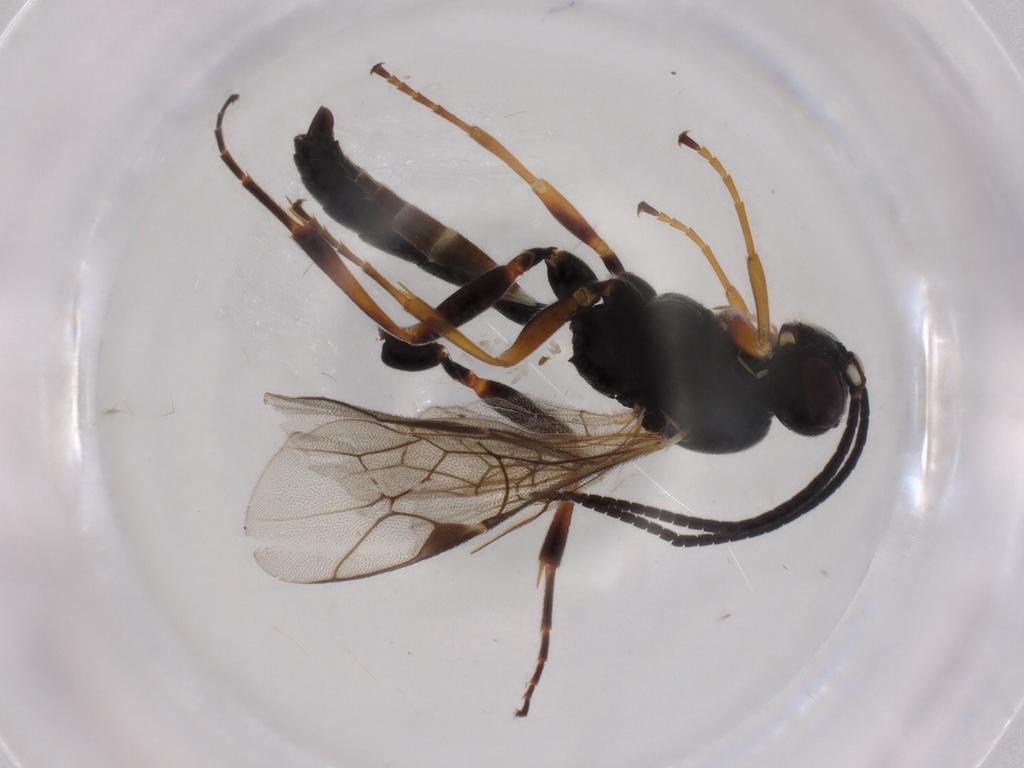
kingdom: Animalia
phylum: Arthropoda
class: Insecta
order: Hymenoptera
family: Ichneumonidae
